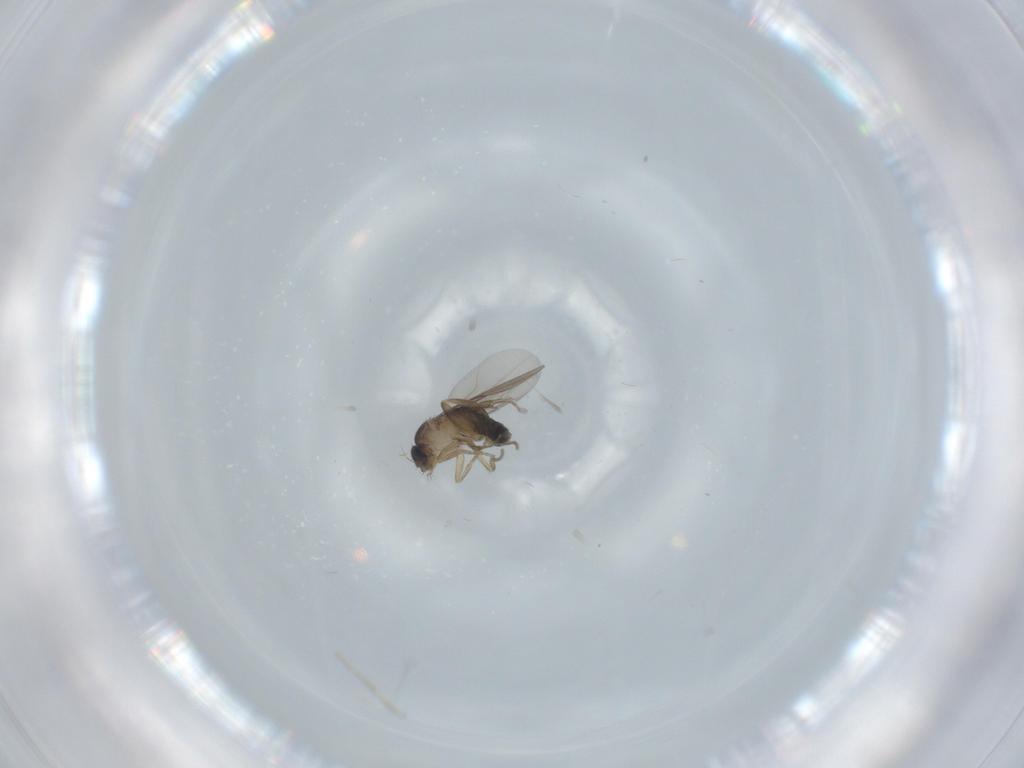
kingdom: Animalia
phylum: Arthropoda
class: Insecta
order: Diptera
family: Phoridae
